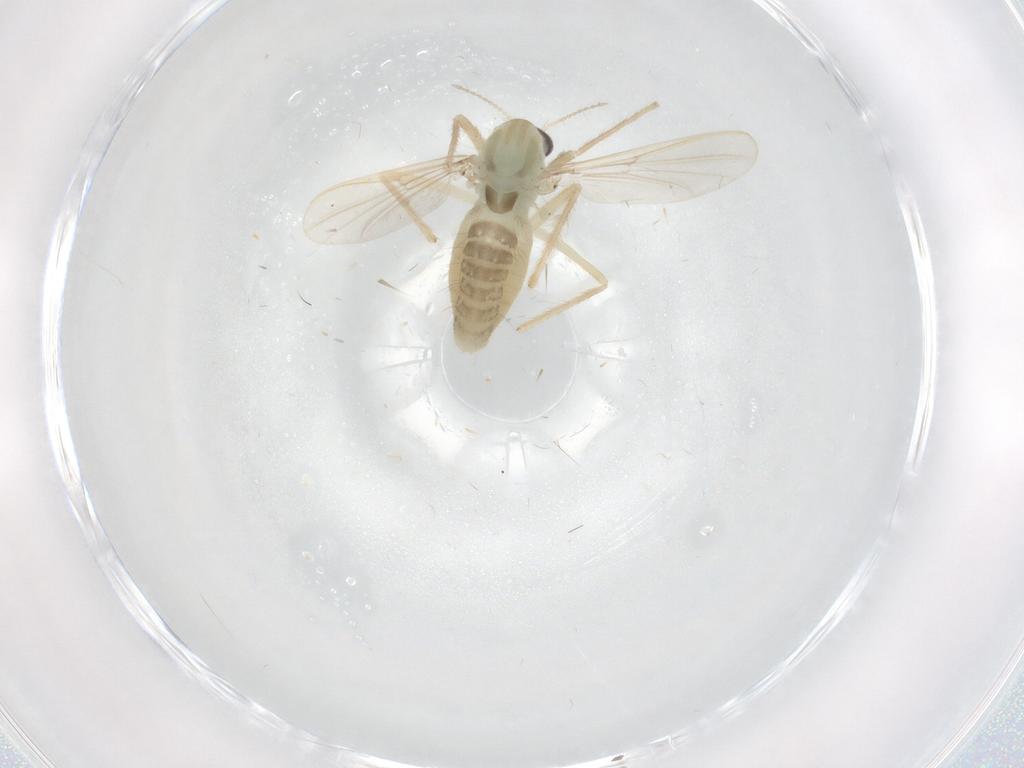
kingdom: Animalia
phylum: Arthropoda
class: Insecta
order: Diptera
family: Chironomidae
